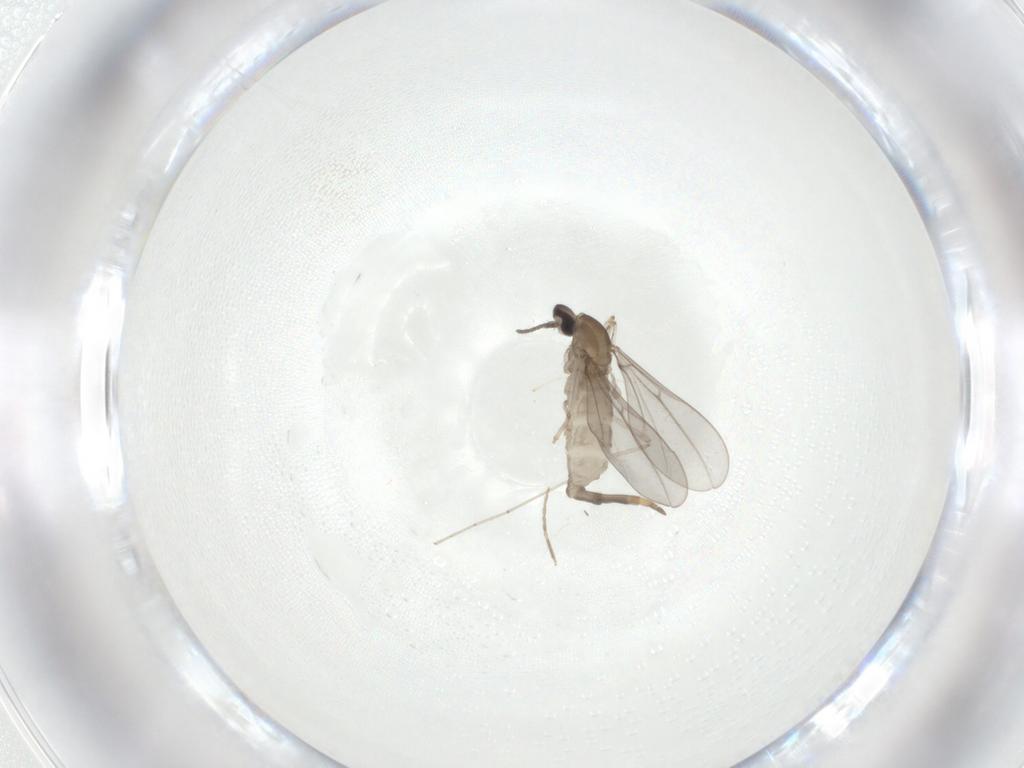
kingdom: Animalia
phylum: Arthropoda
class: Insecta
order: Diptera
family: Cecidomyiidae
